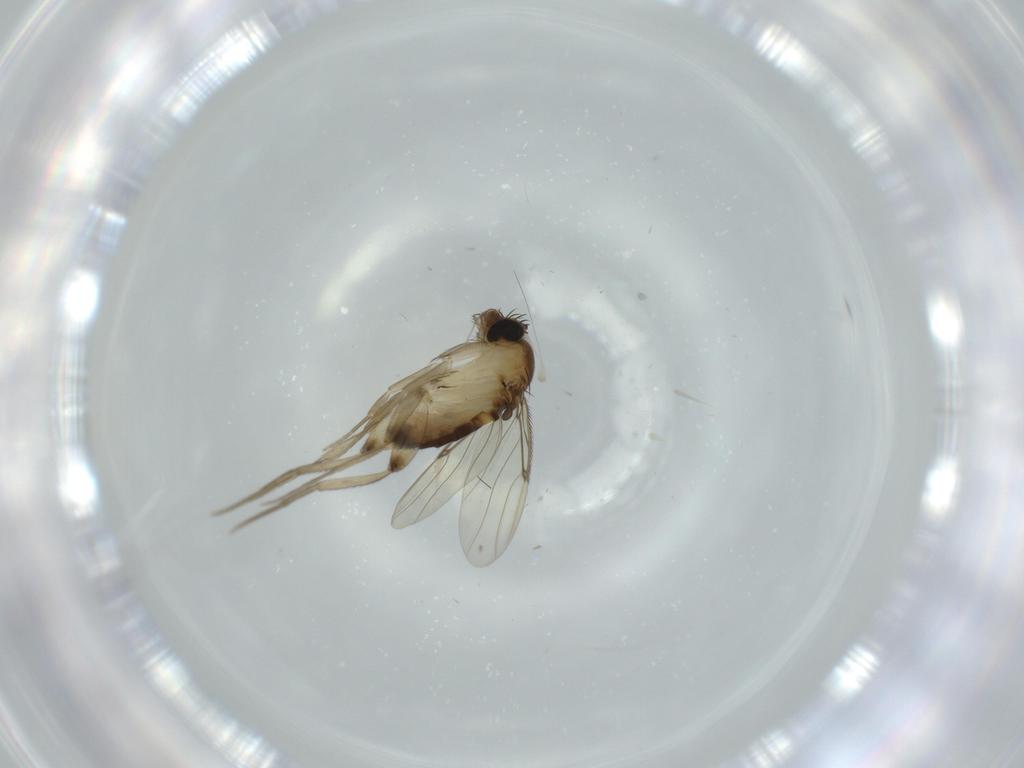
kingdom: Animalia
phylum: Arthropoda
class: Insecta
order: Diptera
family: Phoridae
